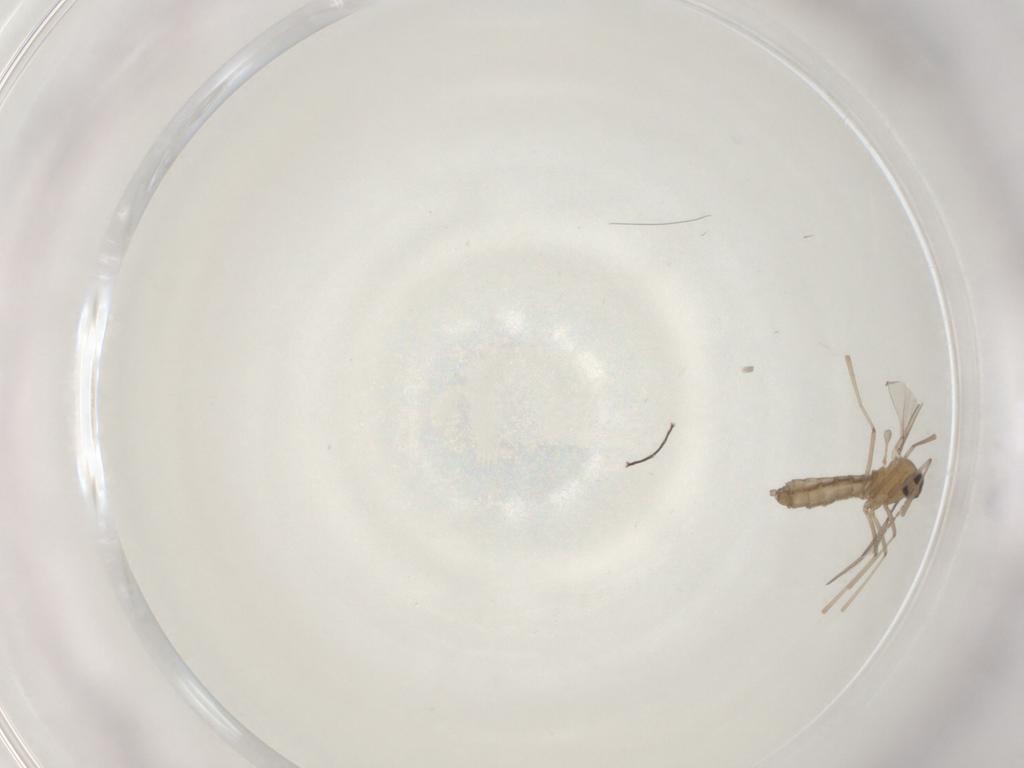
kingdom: Animalia
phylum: Arthropoda
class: Insecta
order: Diptera
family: Cecidomyiidae
